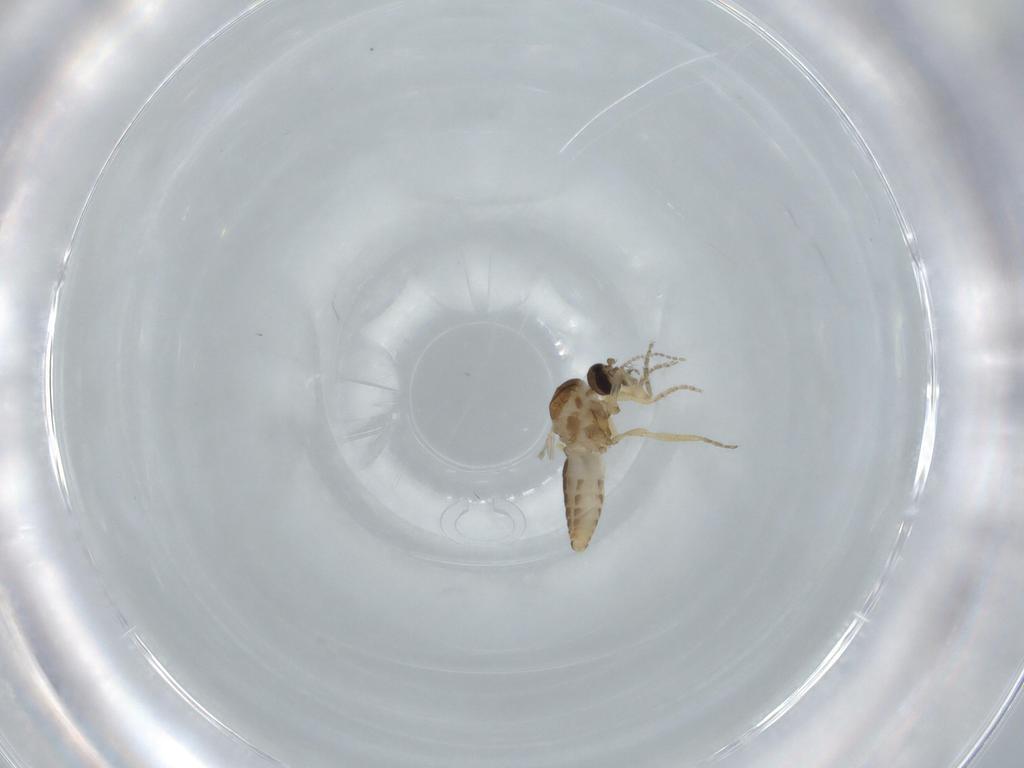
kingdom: Animalia
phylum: Arthropoda
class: Insecta
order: Diptera
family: Ceratopogonidae
